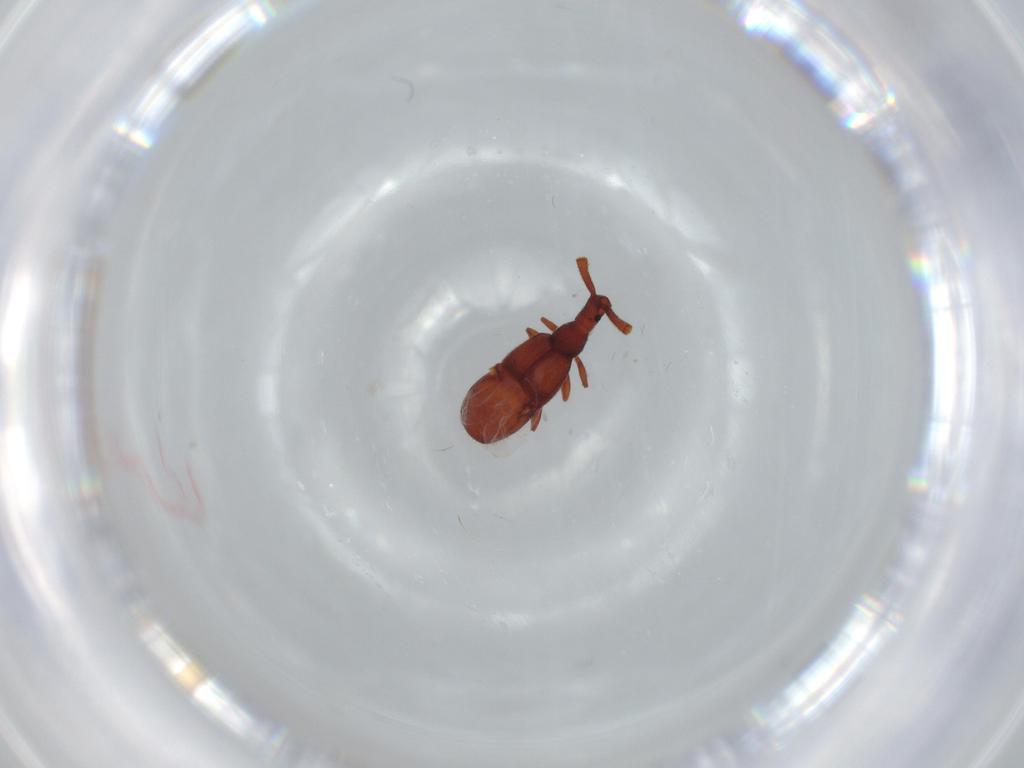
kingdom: Animalia
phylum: Arthropoda
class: Insecta
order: Coleoptera
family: Staphylinidae
